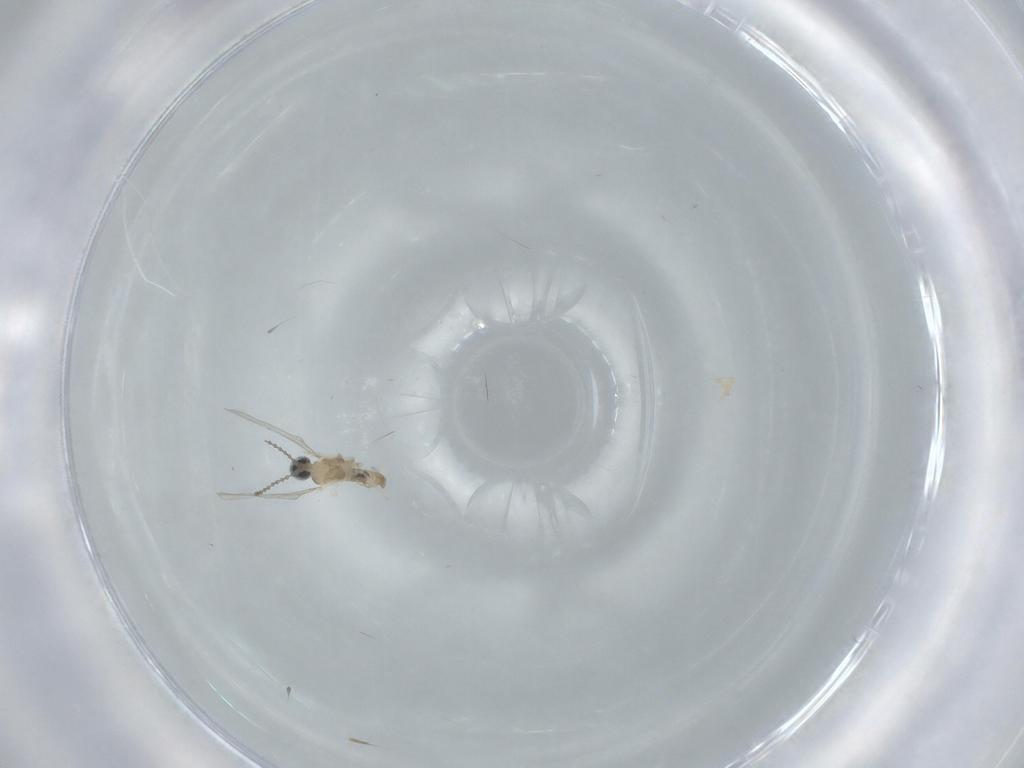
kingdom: Animalia
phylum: Arthropoda
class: Insecta
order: Diptera
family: Cecidomyiidae
